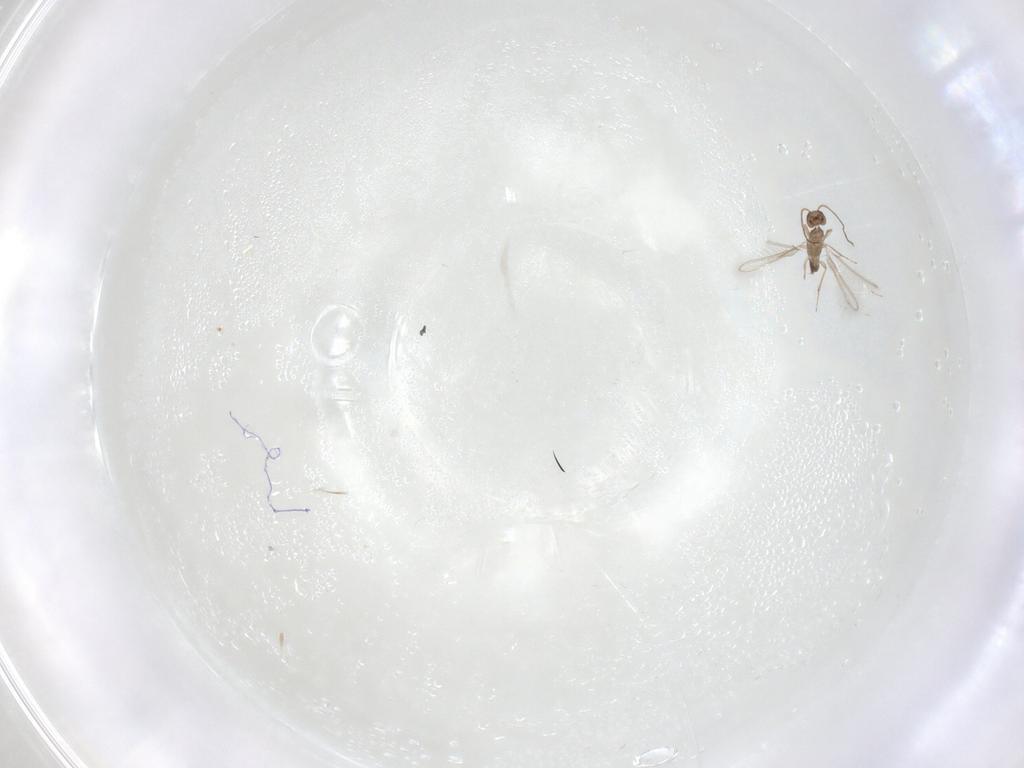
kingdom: Animalia
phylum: Arthropoda
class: Insecta
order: Hymenoptera
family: Mymaridae
